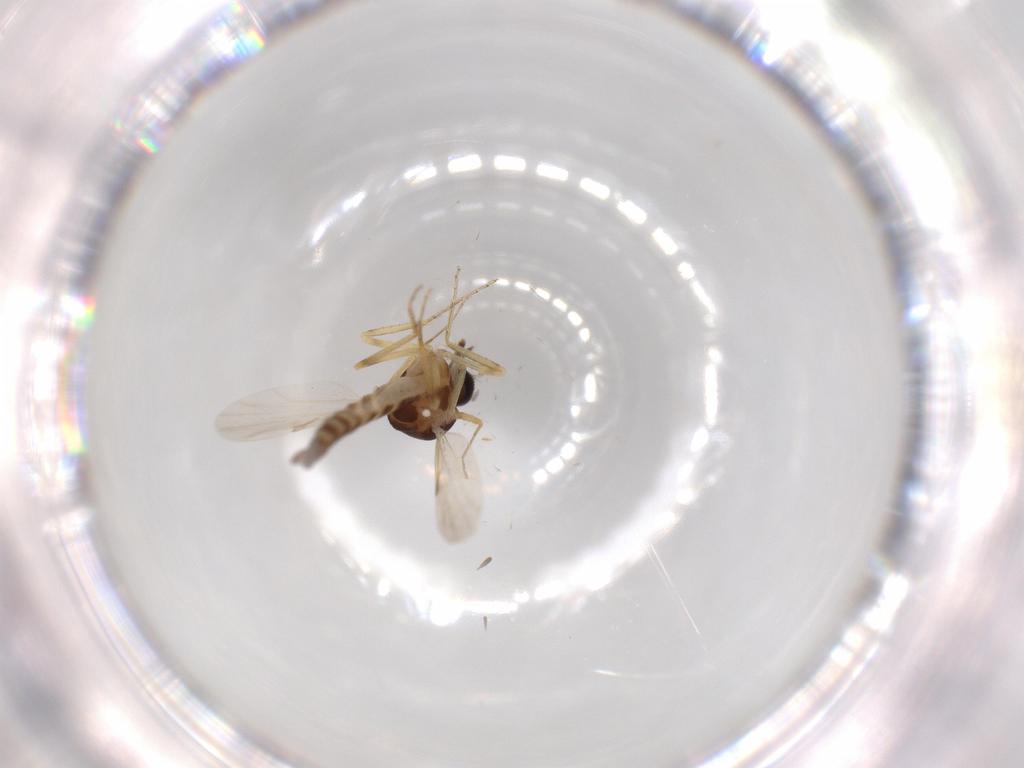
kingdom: Animalia
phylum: Arthropoda
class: Insecta
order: Diptera
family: Ceratopogonidae
